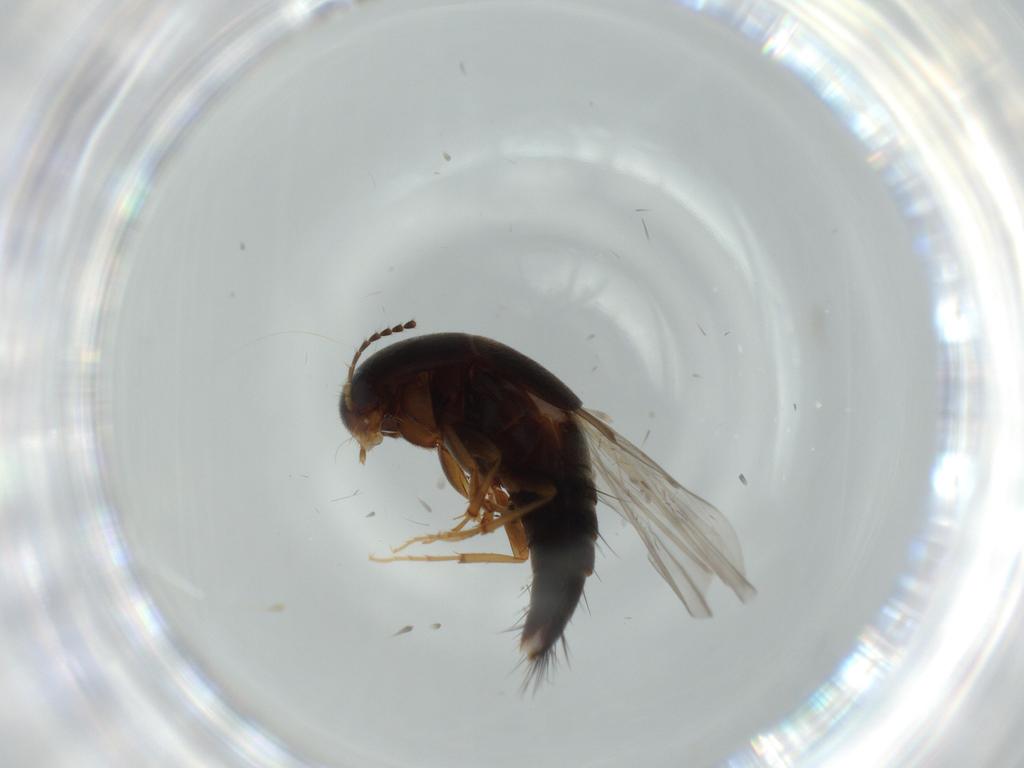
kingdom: Animalia
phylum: Arthropoda
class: Insecta
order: Coleoptera
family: Staphylinidae
